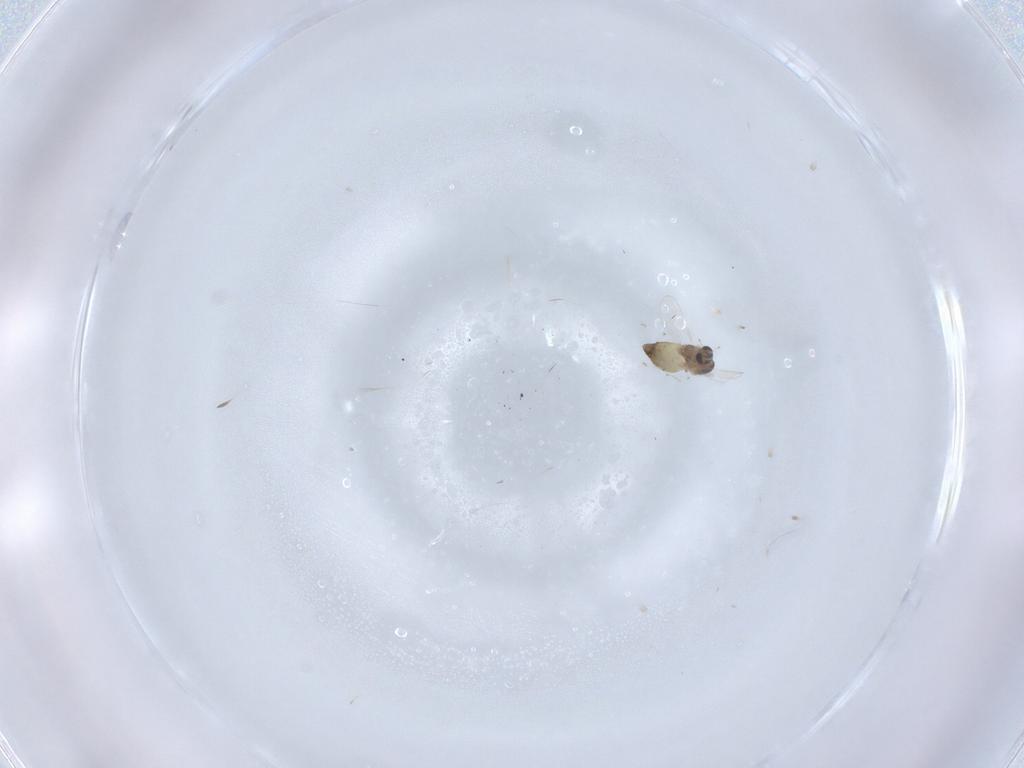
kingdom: Animalia
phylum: Arthropoda
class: Insecta
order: Diptera
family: Chironomidae
